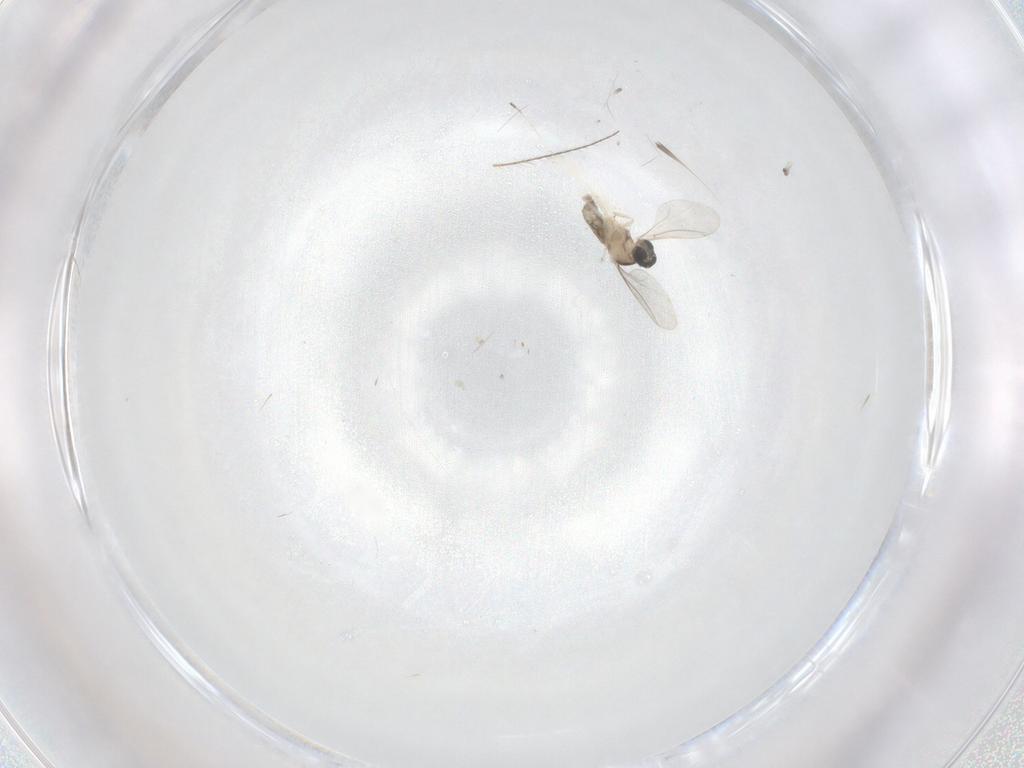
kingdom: Animalia
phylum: Arthropoda
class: Insecta
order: Diptera
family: Cecidomyiidae
